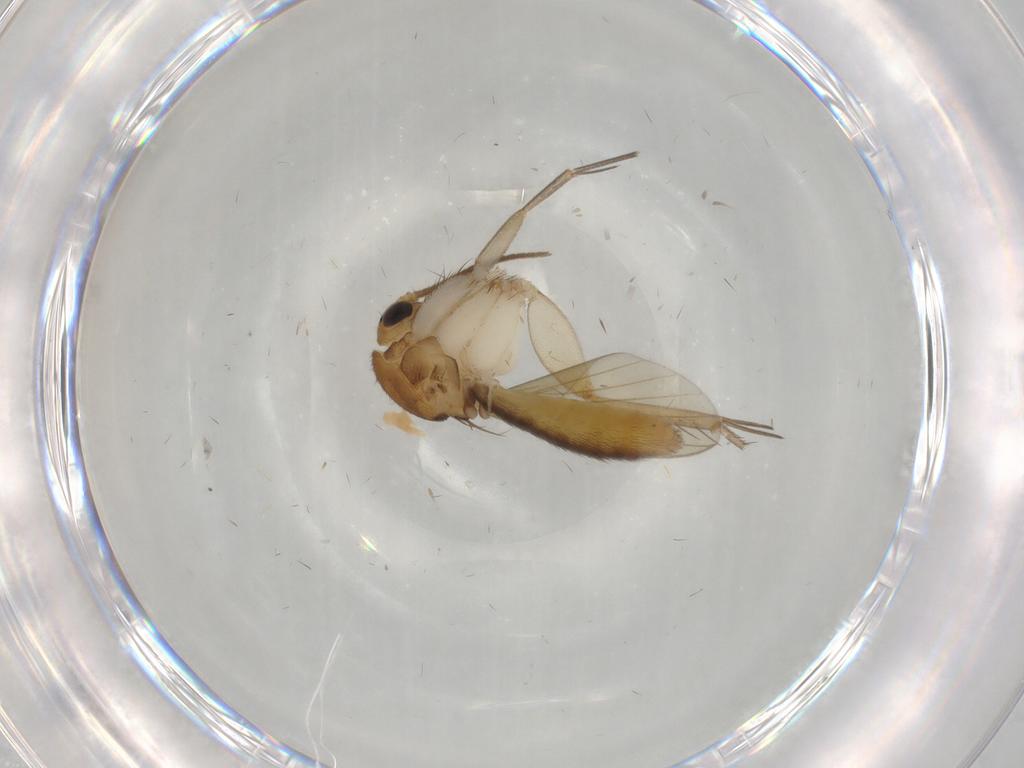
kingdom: Animalia
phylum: Arthropoda
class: Insecta
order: Diptera
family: Mycetophilidae
